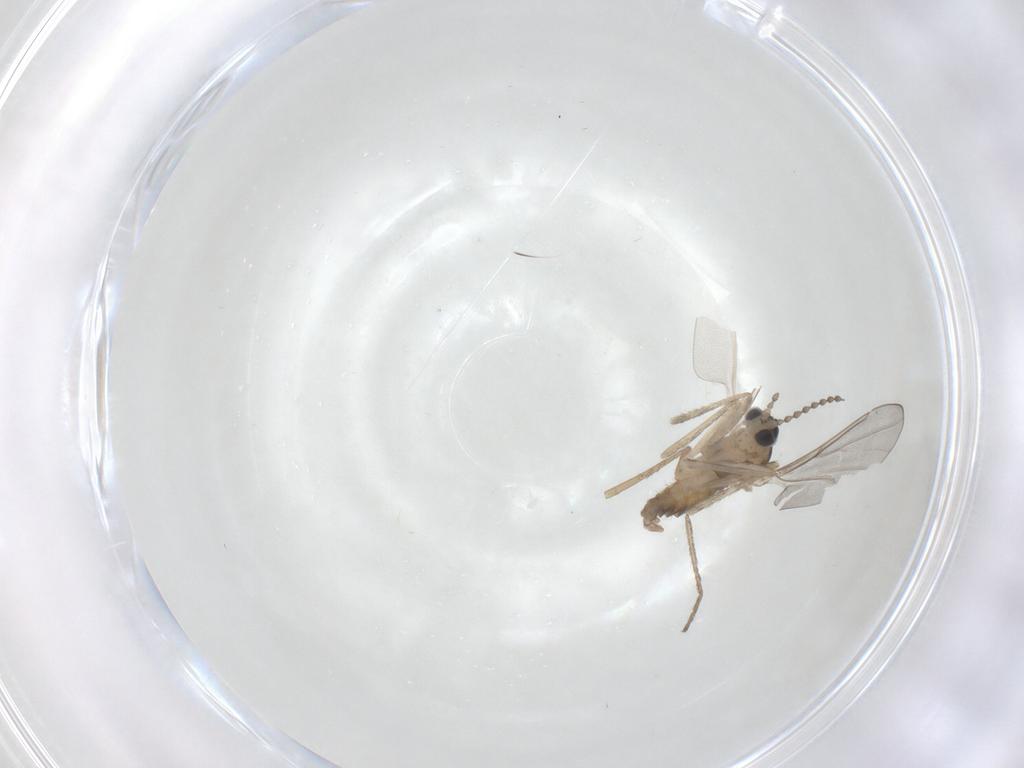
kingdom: Animalia
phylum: Arthropoda
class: Insecta
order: Diptera
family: Cecidomyiidae
